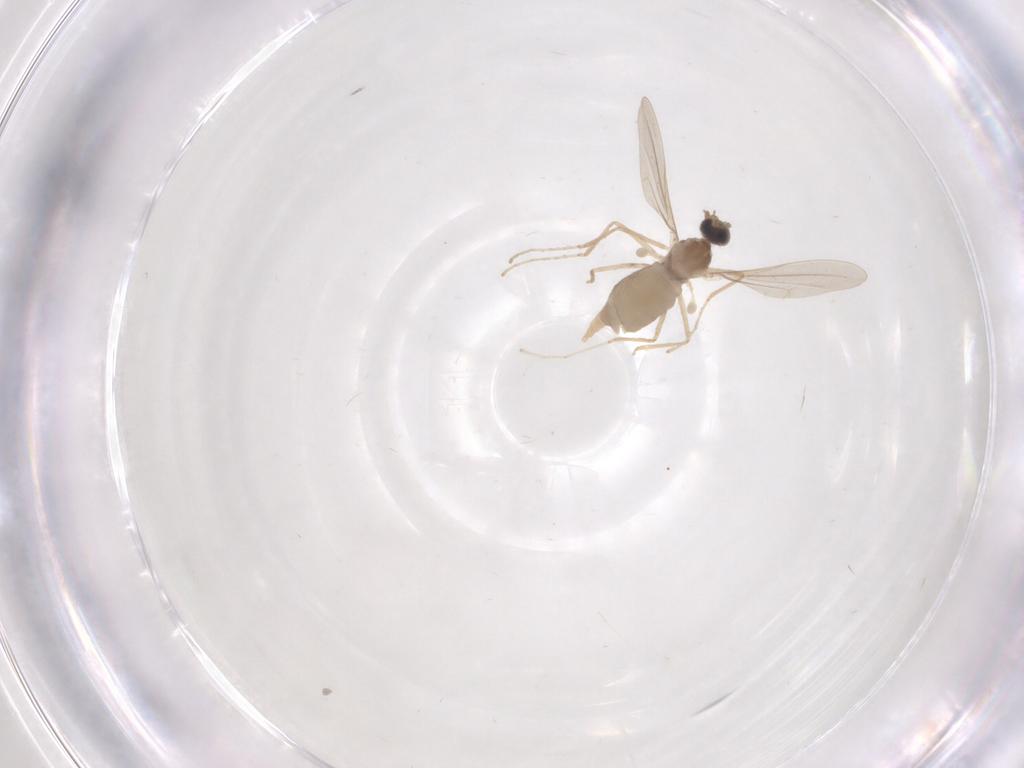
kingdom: Animalia
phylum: Arthropoda
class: Insecta
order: Diptera
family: Cecidomyiidae
